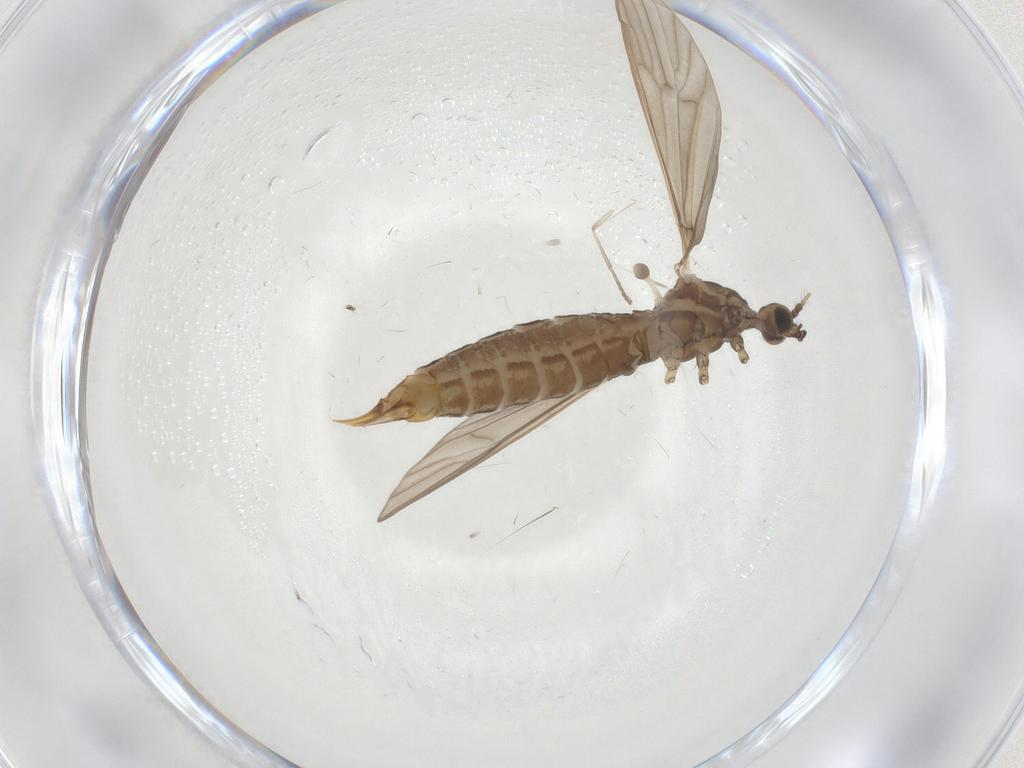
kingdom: Animalia
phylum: Arthropoda
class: Insecta
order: Diptera
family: Limoniidae
